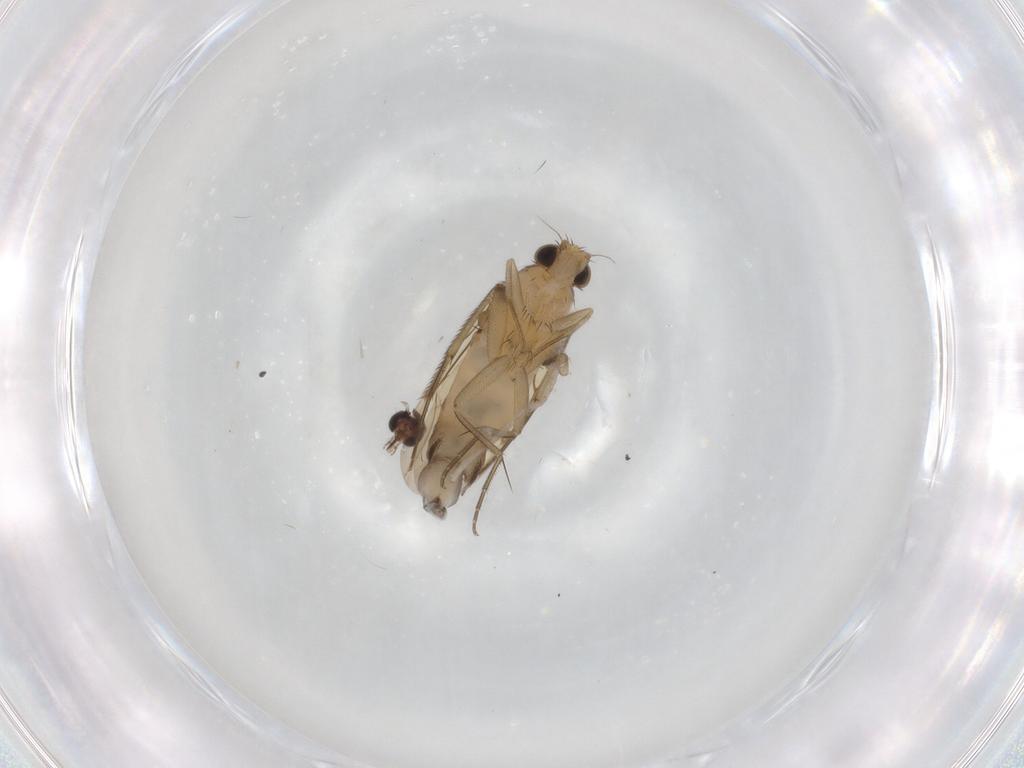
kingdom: Animalia
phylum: Arthropoda
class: Insecta
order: Diptera
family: Phoridae
